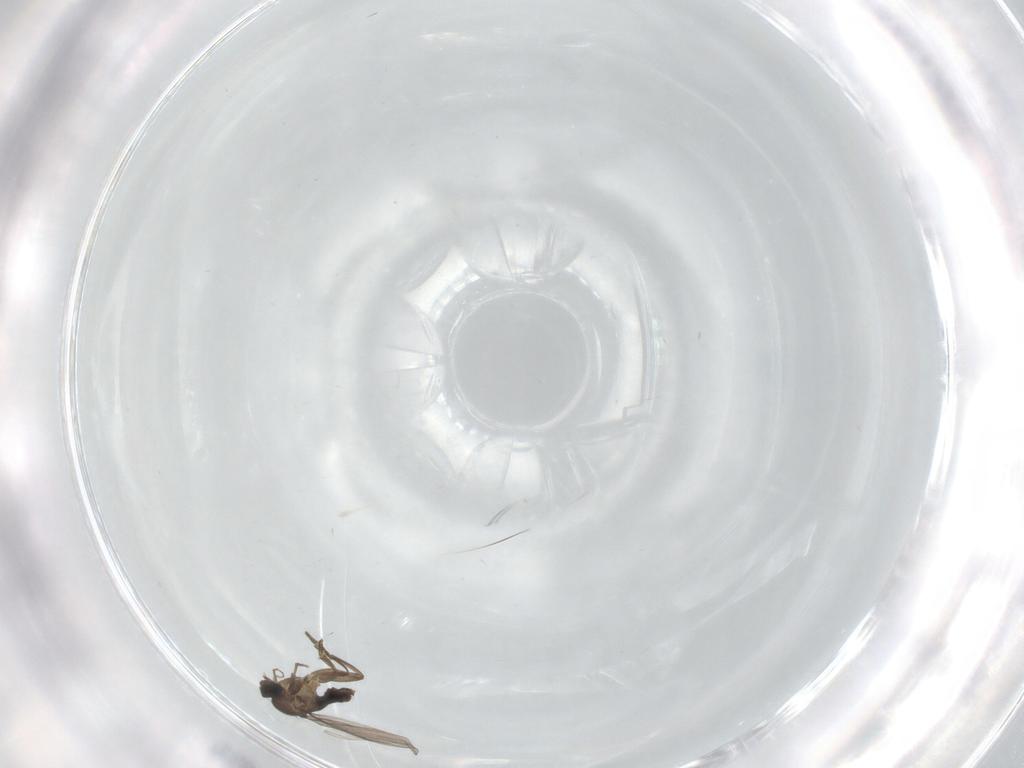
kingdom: Animalia
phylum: Arthropoda
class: Insecta
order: Diptera
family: Phoridae
